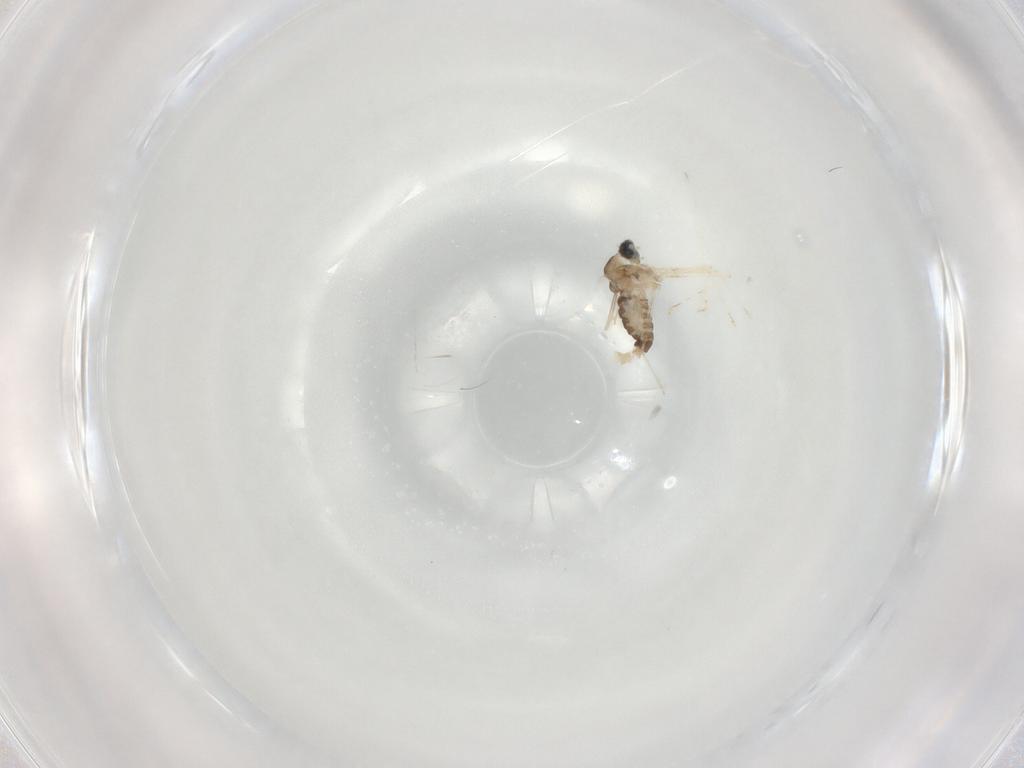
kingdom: Animalia
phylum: Arthropoda
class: Insecta
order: Diptera
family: Cecidomyiidae
